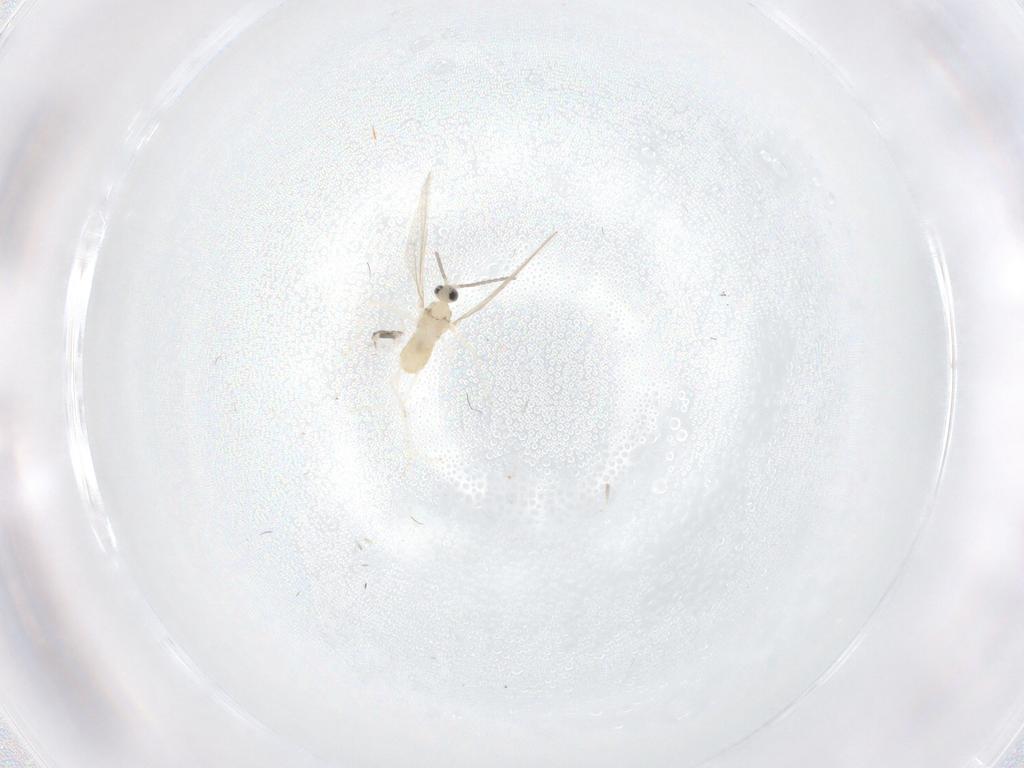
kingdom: Animalia
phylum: Arthropoda
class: Insecta
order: Diptera
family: Cecidomyiidae
